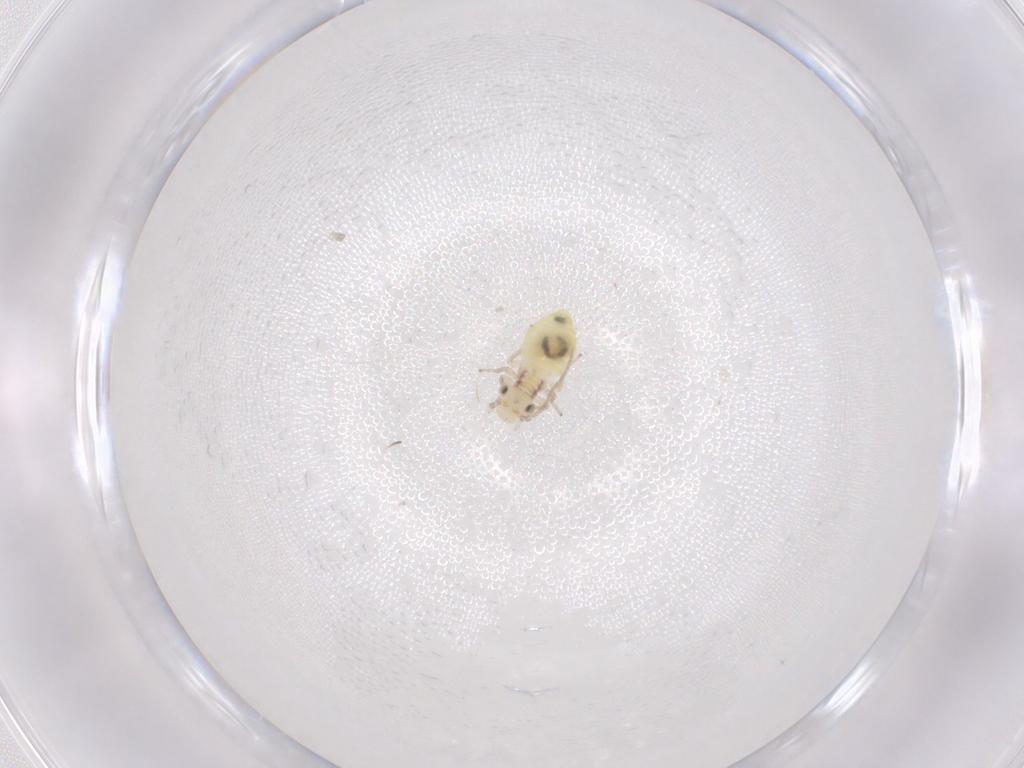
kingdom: Animalia
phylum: Arthropoda
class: Insecta
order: Psocodea
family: Caeciliusidae
